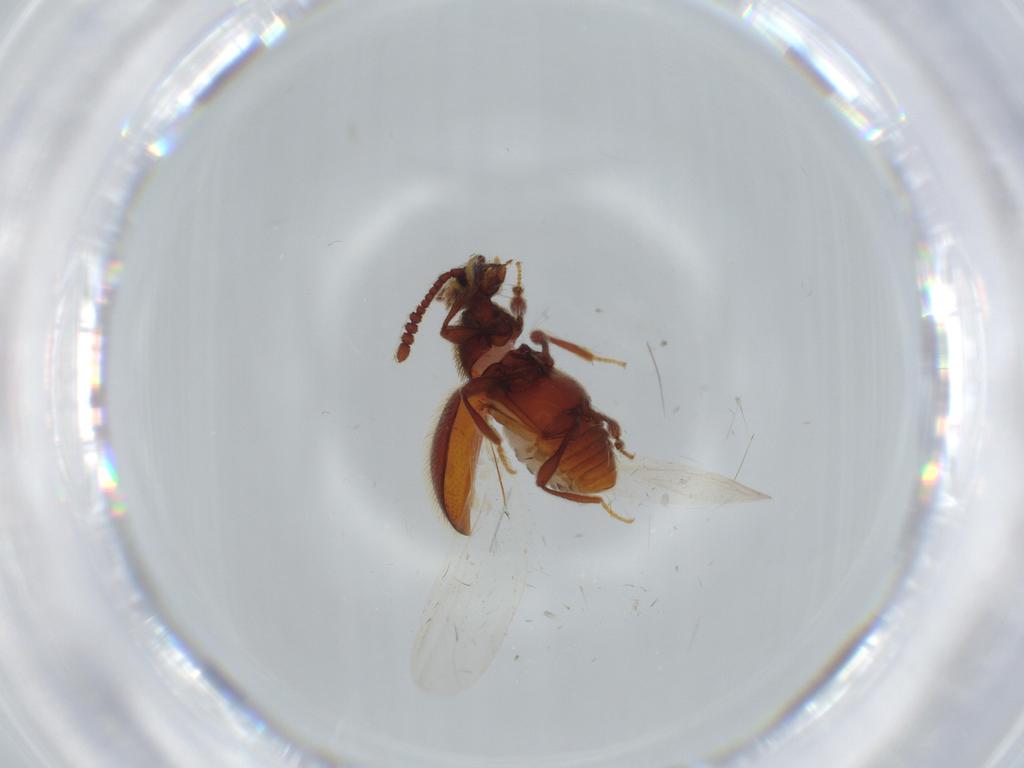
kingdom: Animalia
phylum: Arthropoda
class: Insecta
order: Coleoptera
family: Staphylinidae
